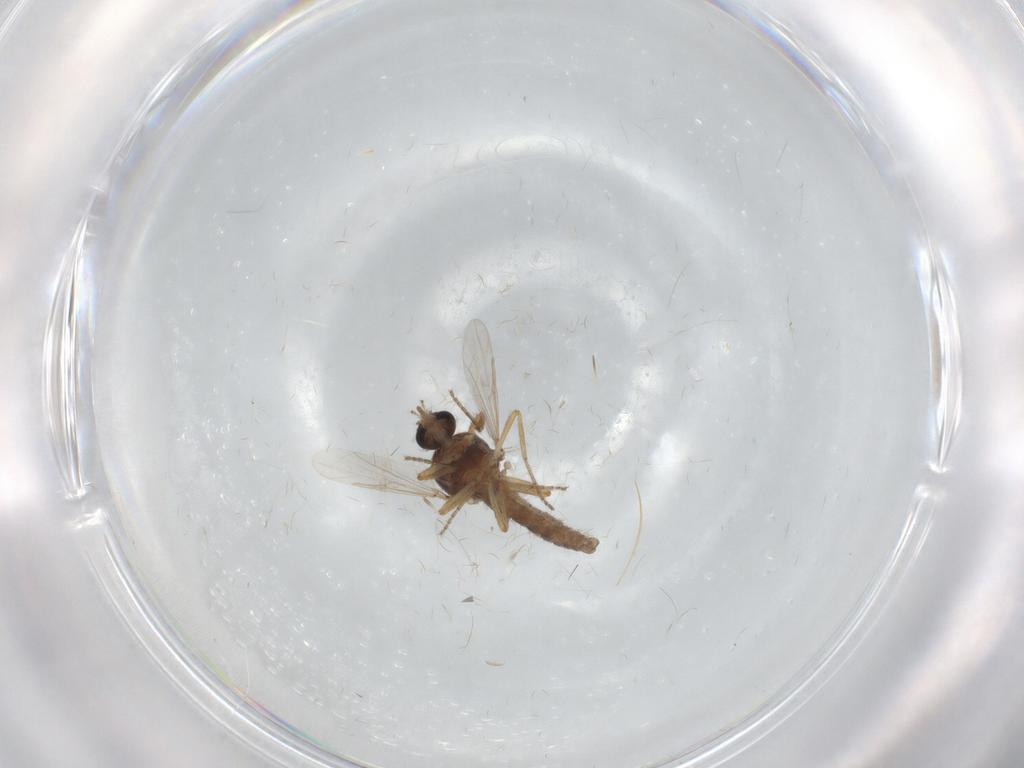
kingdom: Animalia
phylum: Arthropoda
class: Insecta
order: Diptera
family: Ceratopogonidae
